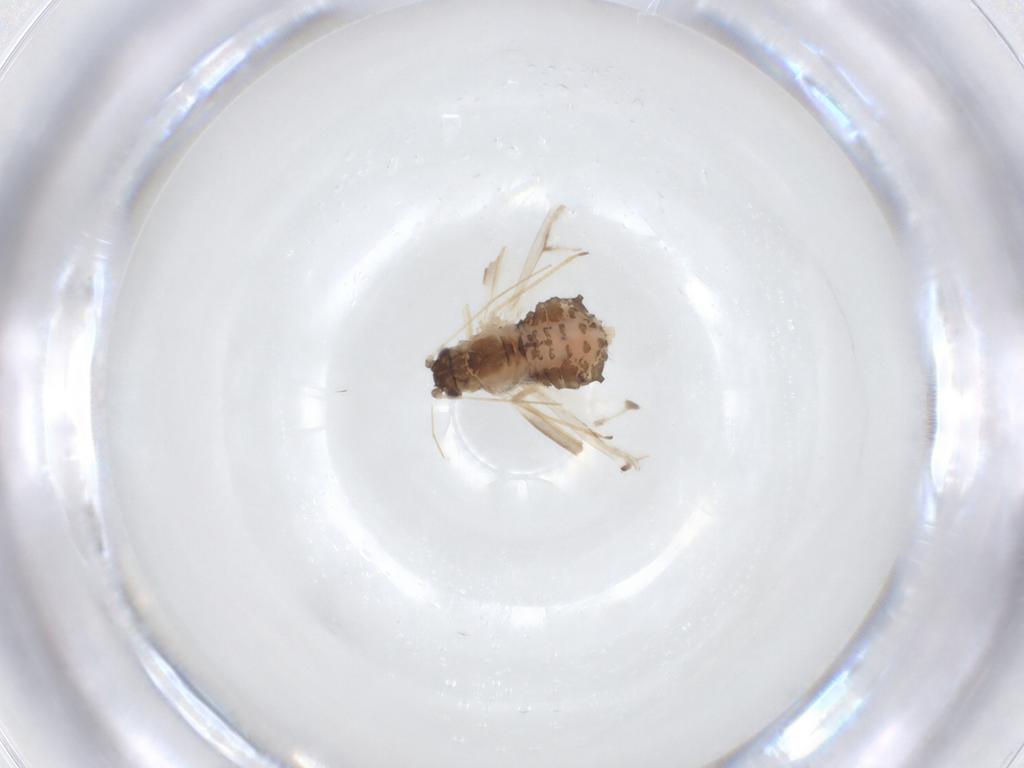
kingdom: Animalia
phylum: Arthropoda
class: Insecta
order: Hemiptera
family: Aphididae
